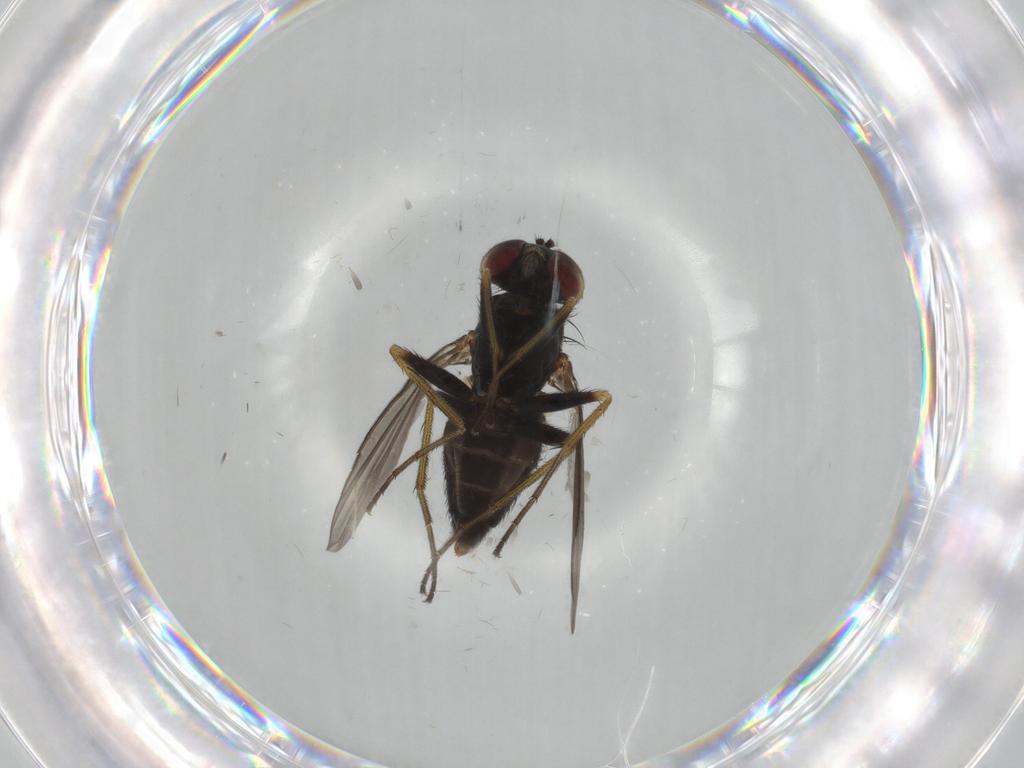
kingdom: Animalia
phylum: Arthropoda
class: Insecta
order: Diptera
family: Dolichopodidae
